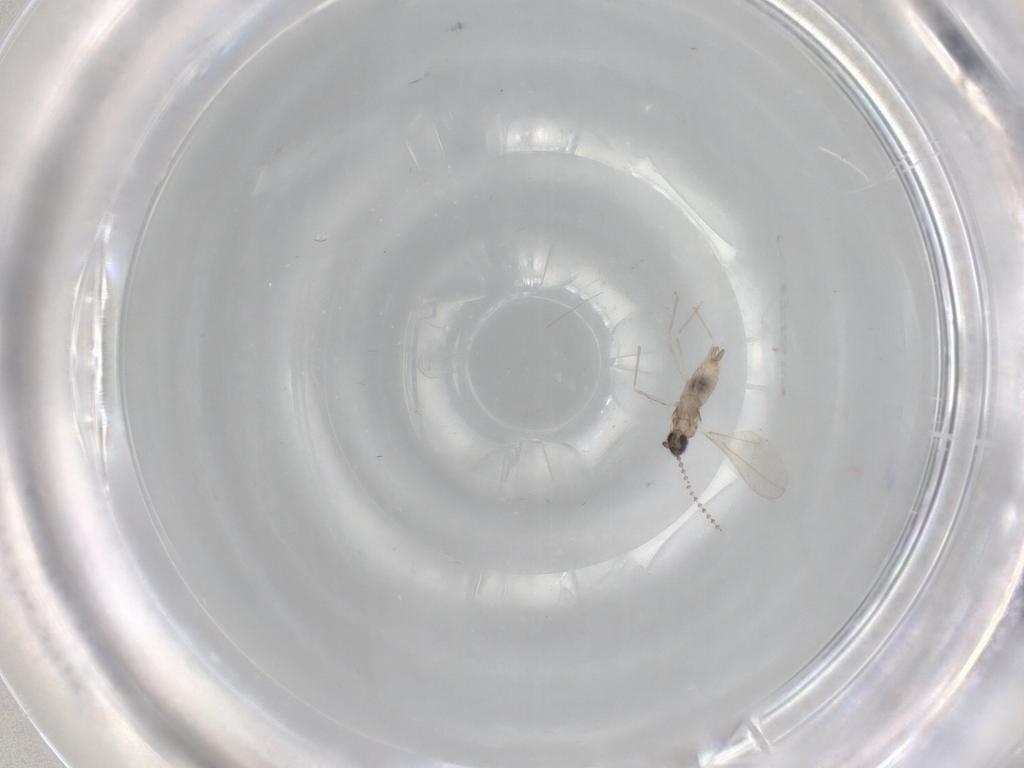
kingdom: Animalia
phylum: Arthropoda
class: Insecta
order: Diptera
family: Cecidomyiidae
